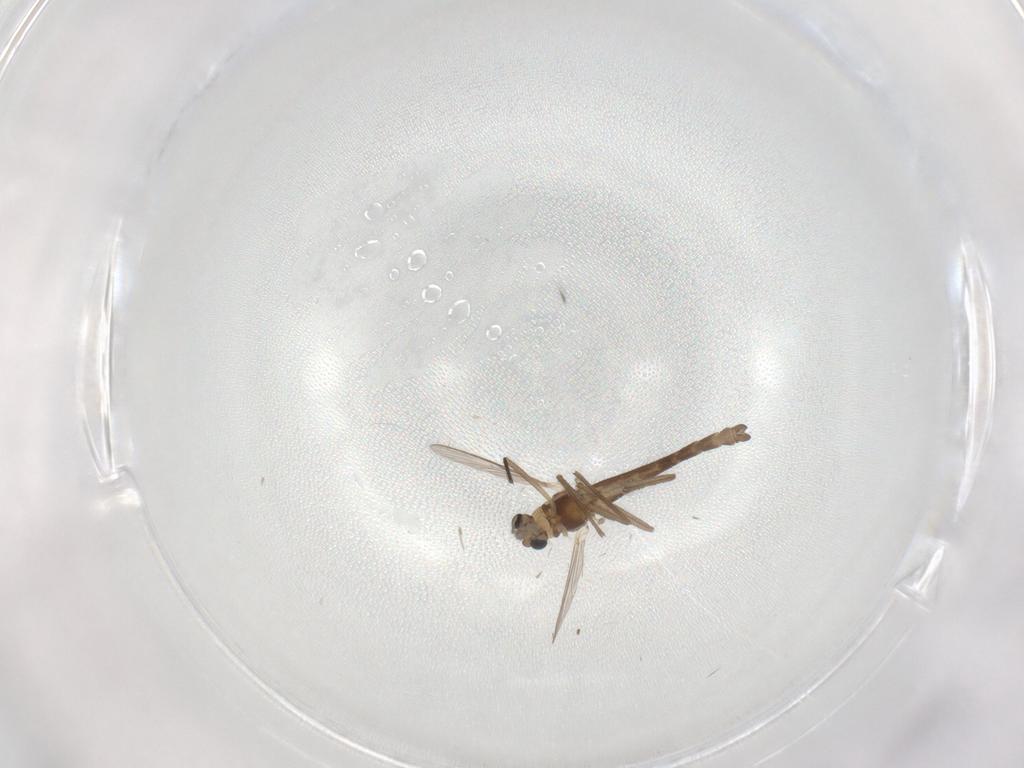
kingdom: Animalia
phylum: Arthropoda
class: Insecta
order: Diptera
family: Chironomidae
